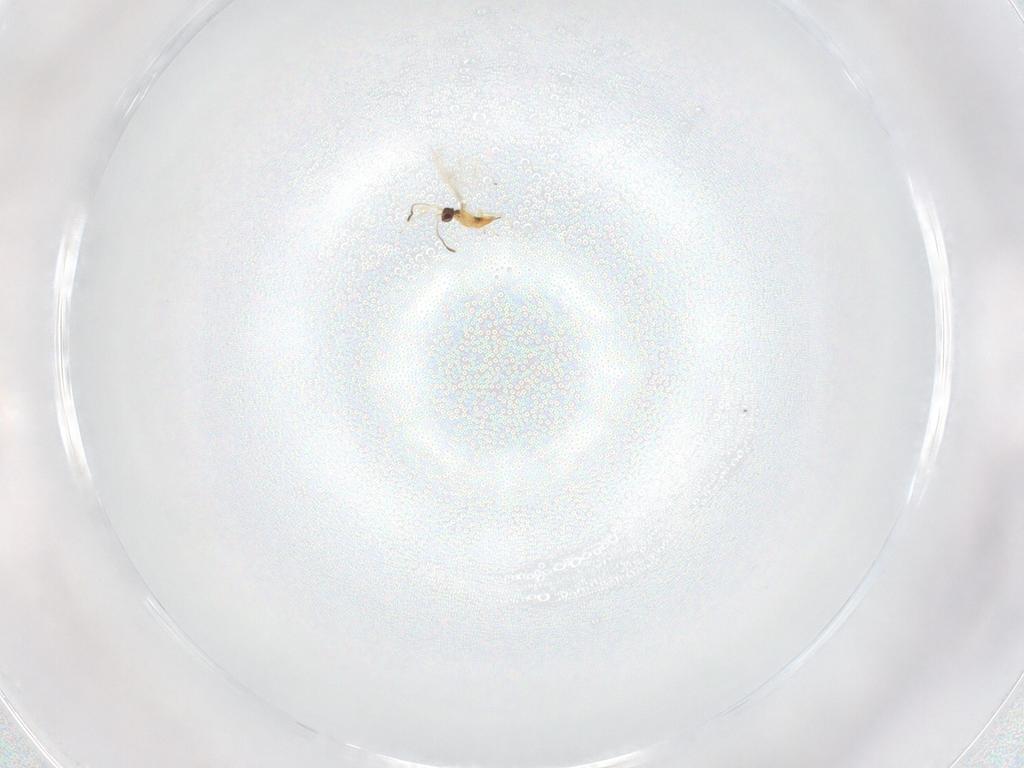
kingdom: Animalia
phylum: Arthropoda
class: Insecta
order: Hymenoptera
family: Mymaridae
